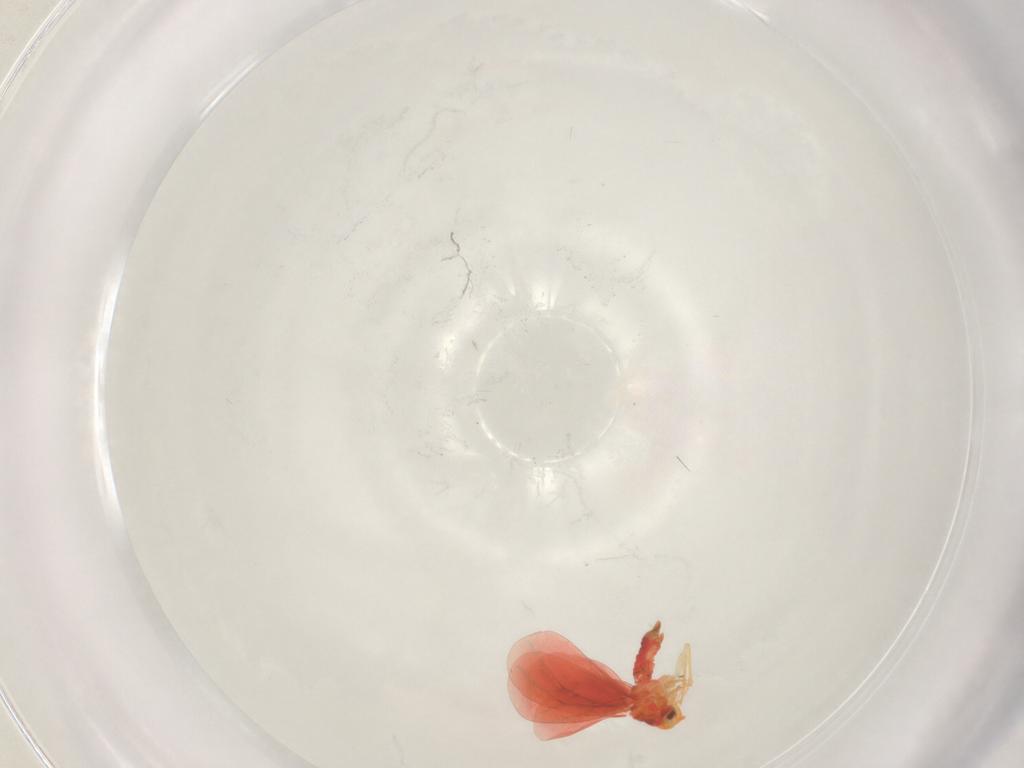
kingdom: Animalia
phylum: Arthropoda
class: Insecta
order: Hemiptera
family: Aleyrodidae
